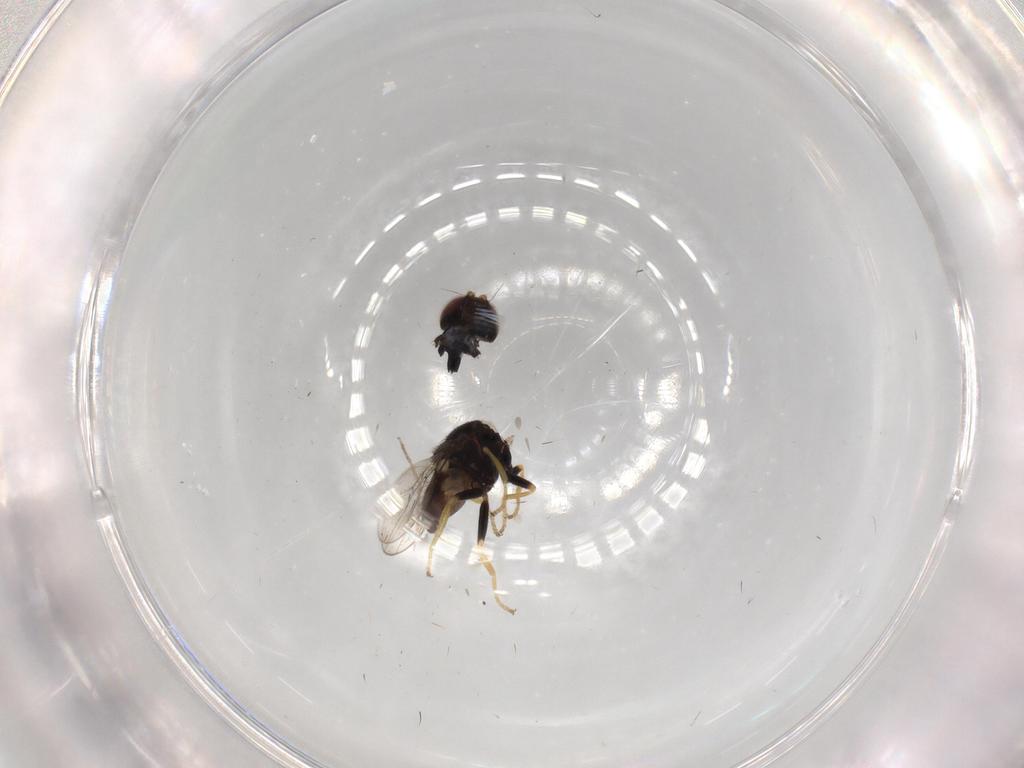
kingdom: Animalia
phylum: Arthropoda
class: Insecta
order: Diptera
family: Chloropidae
